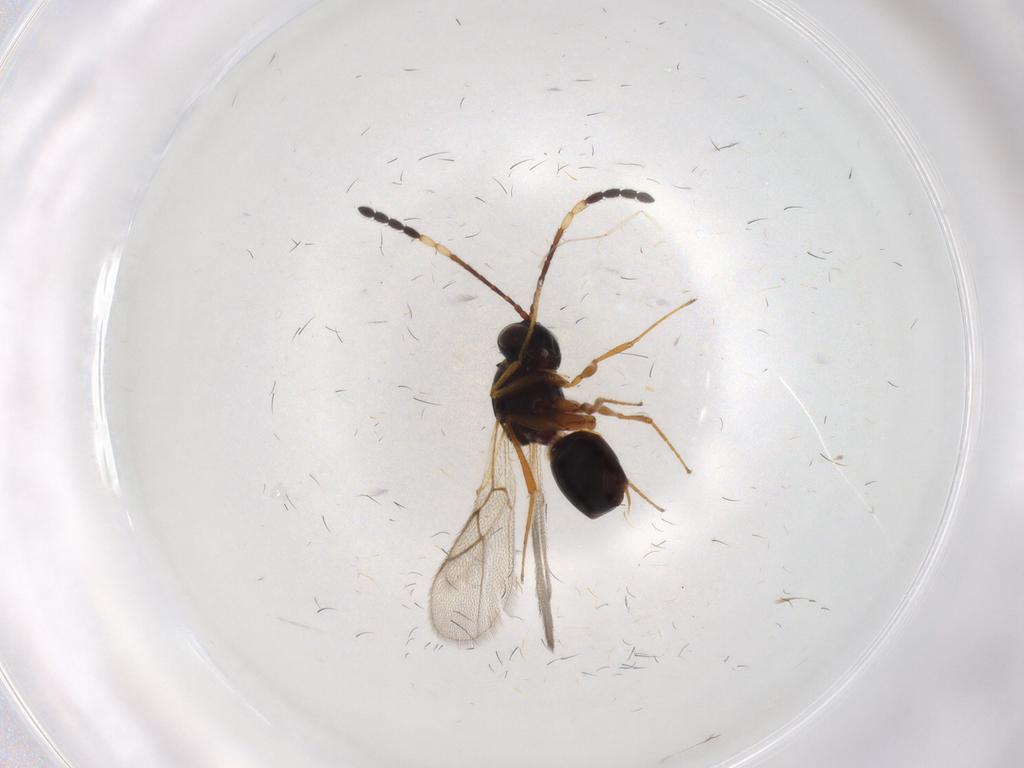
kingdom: Animalia
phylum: Arthropoda
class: Insecta
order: Hymenoptera
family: Figitidae
